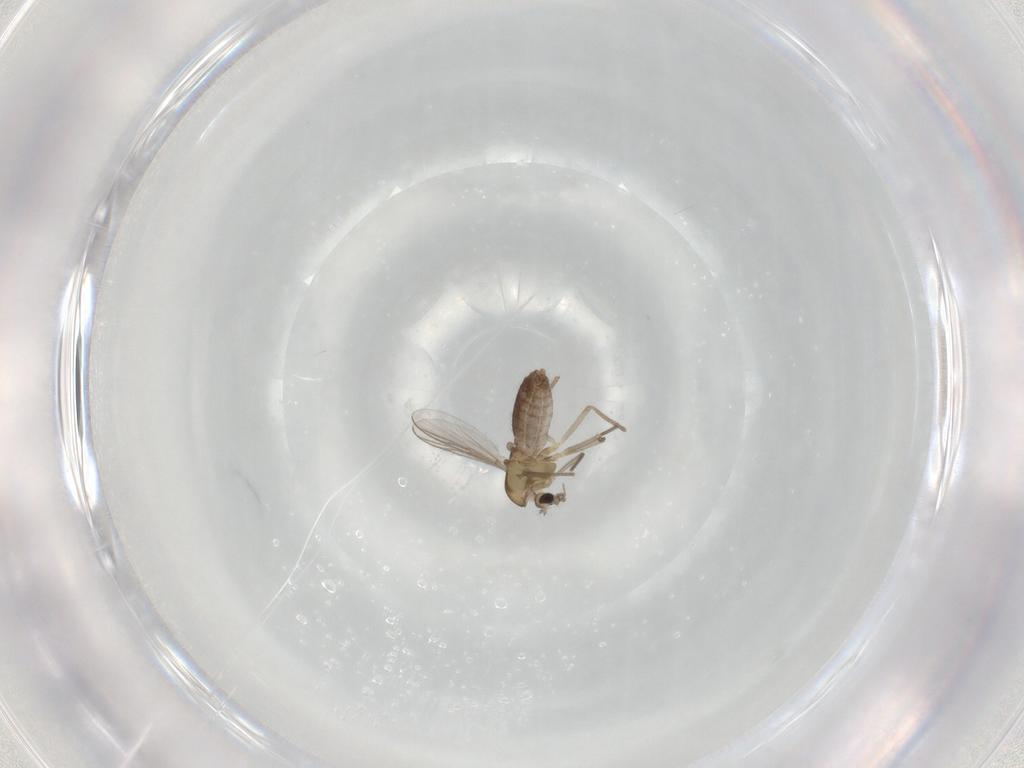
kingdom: Animalia
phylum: Arthropoda
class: Insecta
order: Diptera
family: Chironomidae
